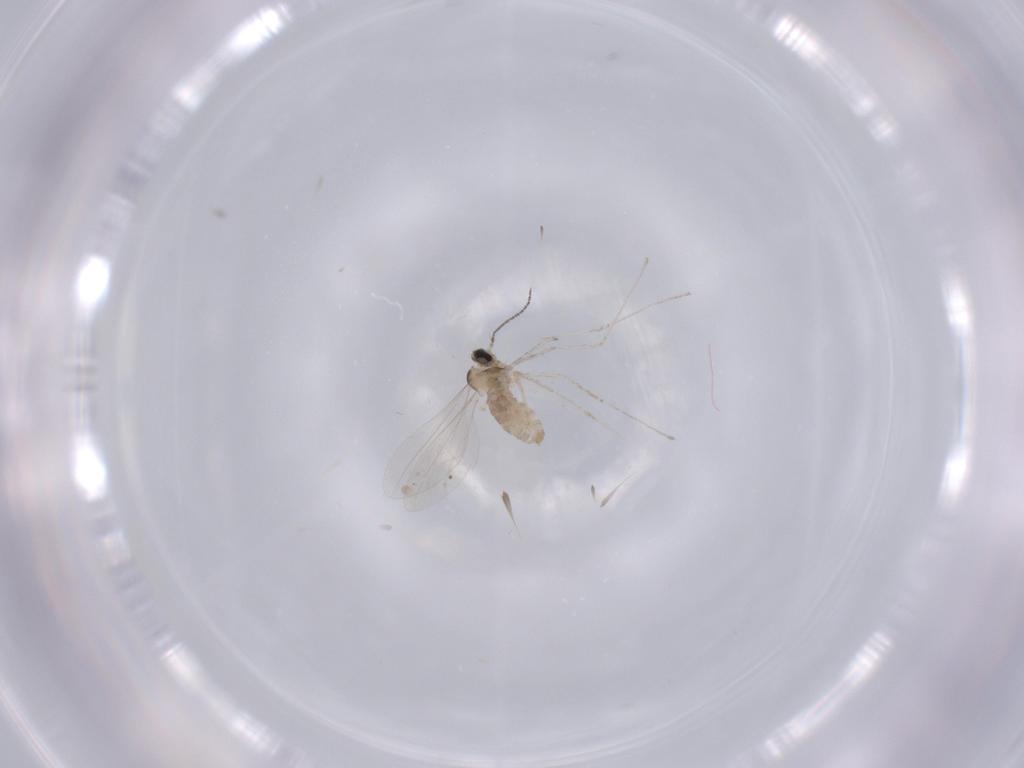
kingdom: Animalia
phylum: Arthropoda
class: Insecta
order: Diptera
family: Cecidomyiidae
